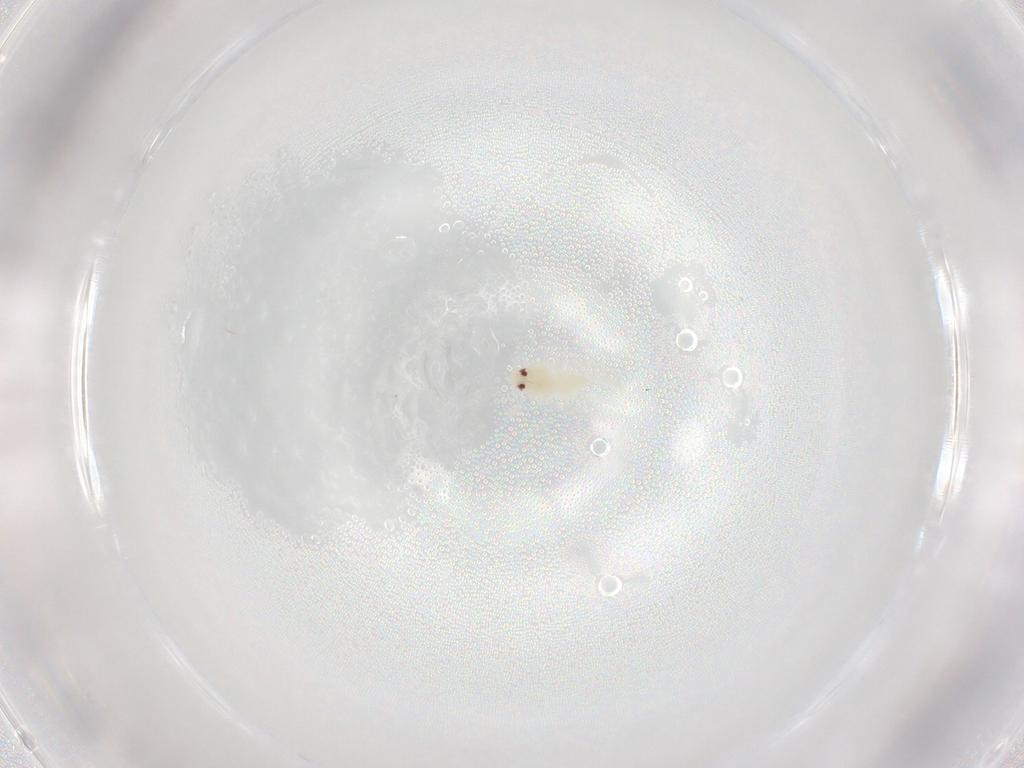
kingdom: Animalia
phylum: Arthropoda
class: Insecta
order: Hemiptera
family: Aleyrodidae
